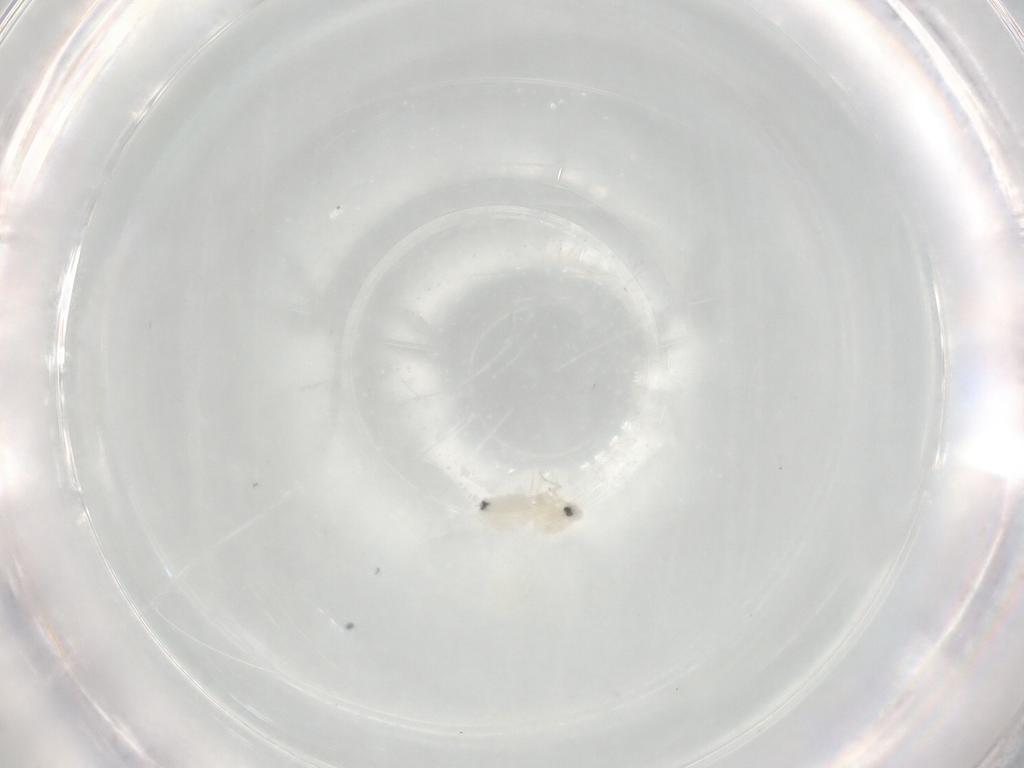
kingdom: Animalia
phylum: Arthropoda
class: Insecta
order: Hemiptera
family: Aleyrodidae
